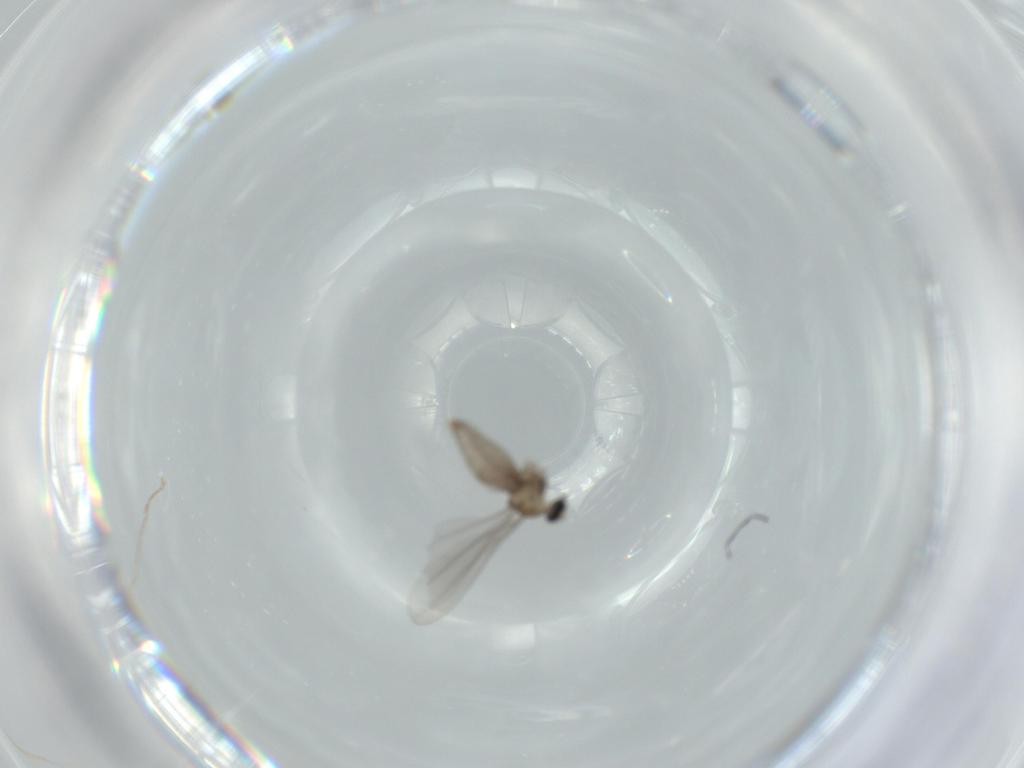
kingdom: Animalia
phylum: Arthropoda
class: Insecta
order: Diptera
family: Cecidomyiidae
